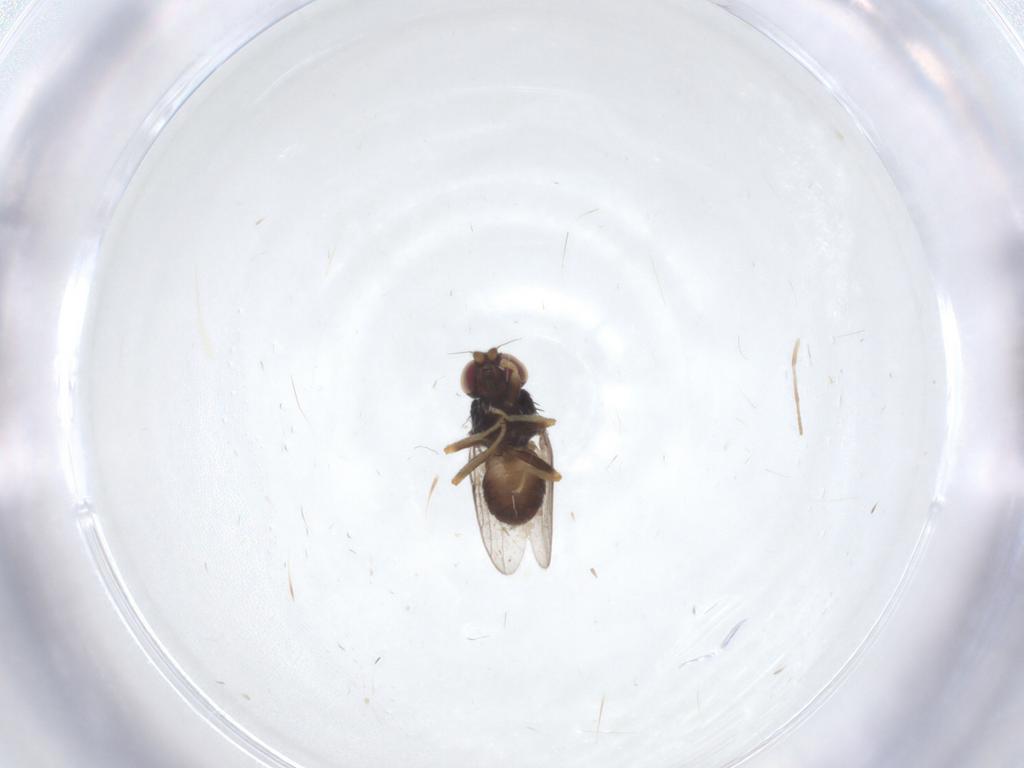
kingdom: Animalia
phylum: Arthropoda
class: Insecta
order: Diptera
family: Chloropidae
